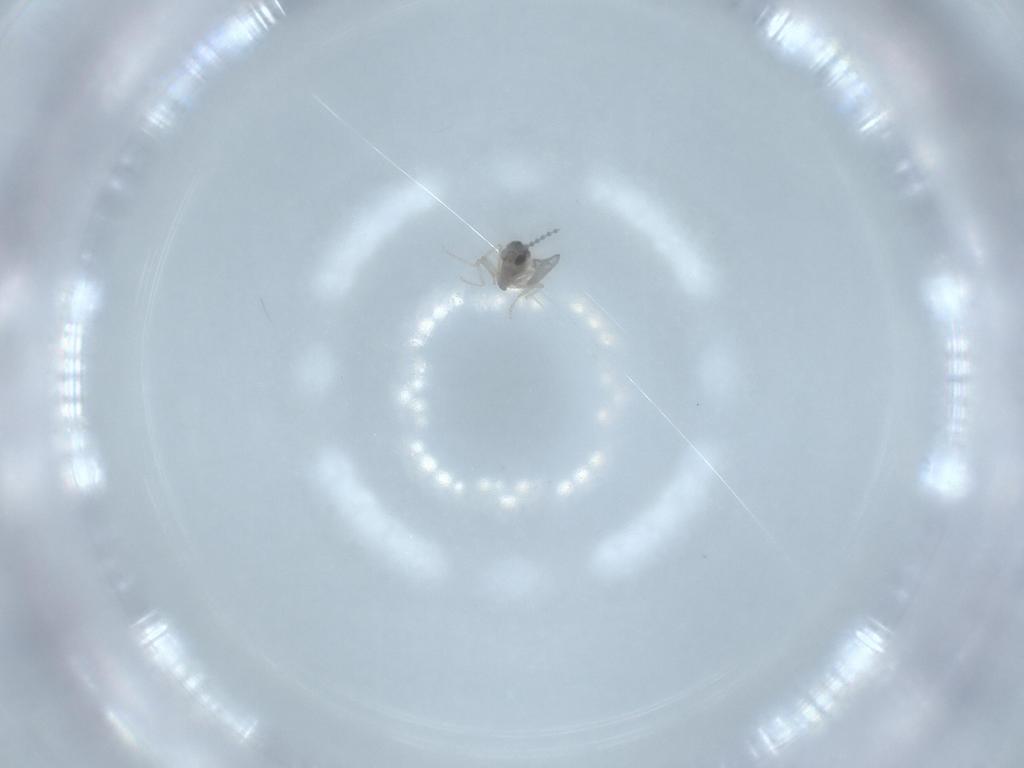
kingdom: Animalia
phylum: Arthropoda
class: Insecta
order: Diptera
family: Cecidomyiidae
